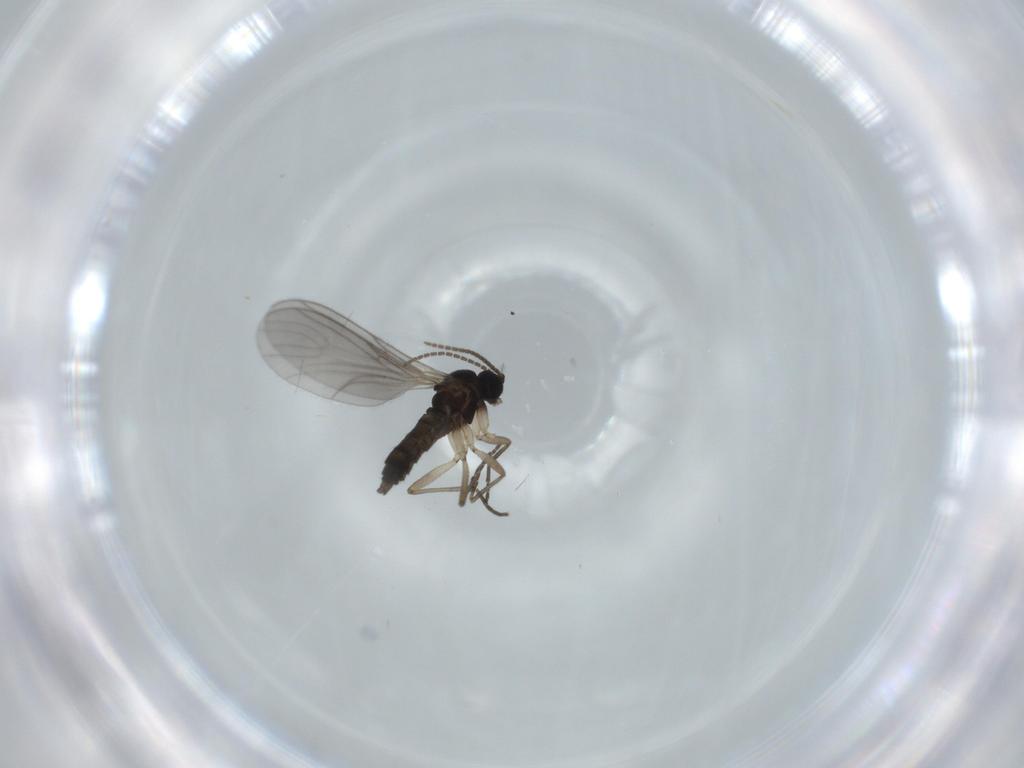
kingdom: Animalia
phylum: Arthropoda
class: Insecta
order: Diptera
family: Sciaridae
